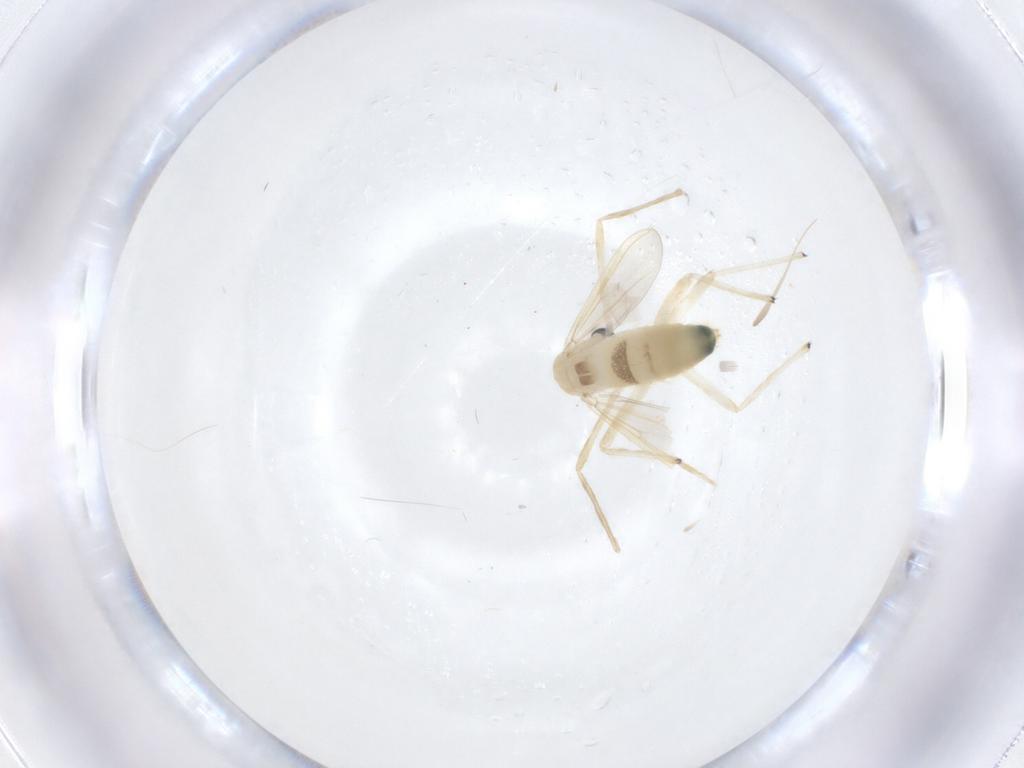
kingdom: Animalia
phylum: Arthropoda
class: Insecta
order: Diptera
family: Chironomidae
